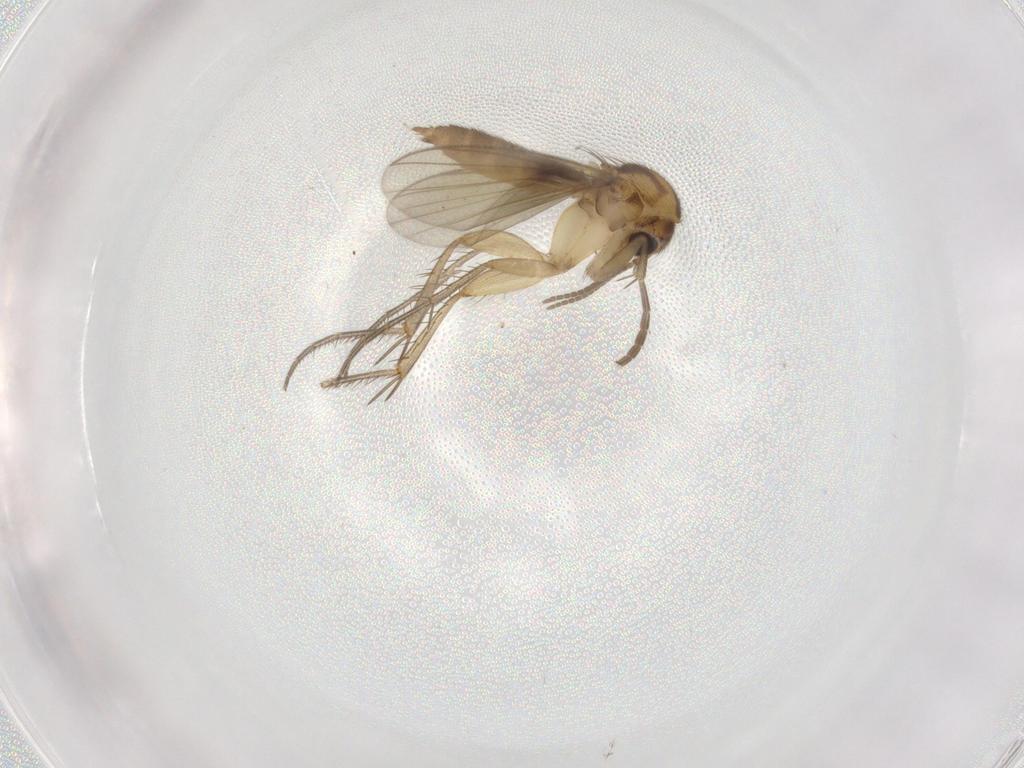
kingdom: Animalia
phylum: Arthropoda
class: Insecta
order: Diptera
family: Mycetophilidae
